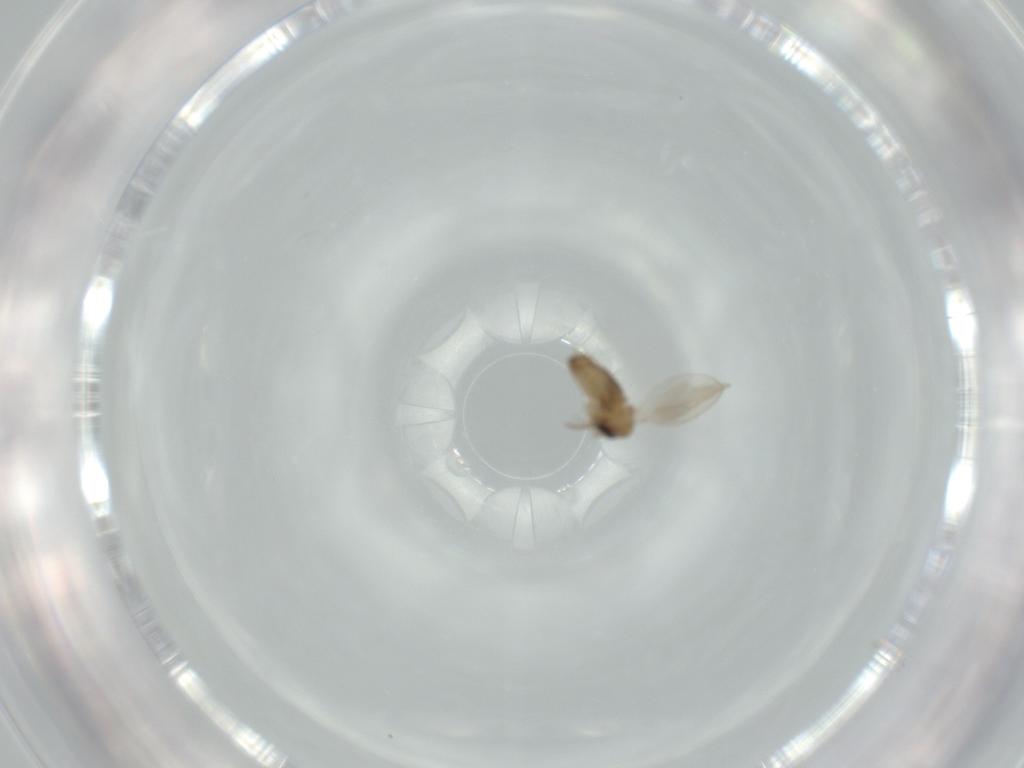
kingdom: Animalia
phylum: Arthropoda
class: Insecta
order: Diptera
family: Psychodidae
